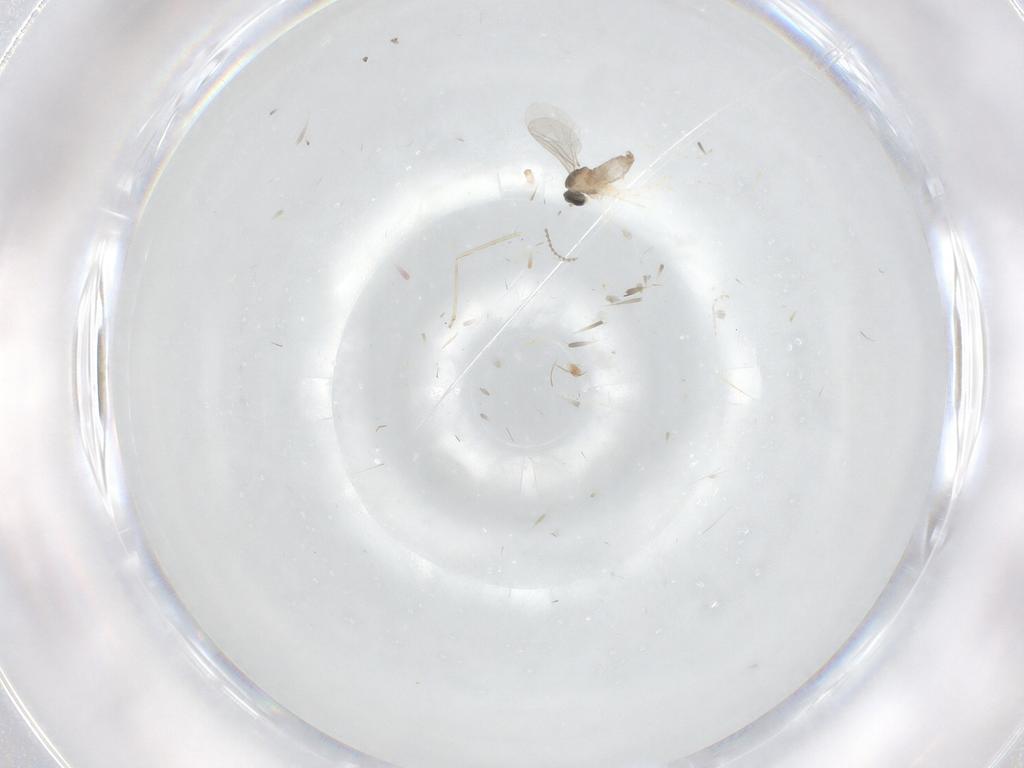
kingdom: Animalia
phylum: Arthropoda
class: Insecta
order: Diptera
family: Cecidomyiidae
